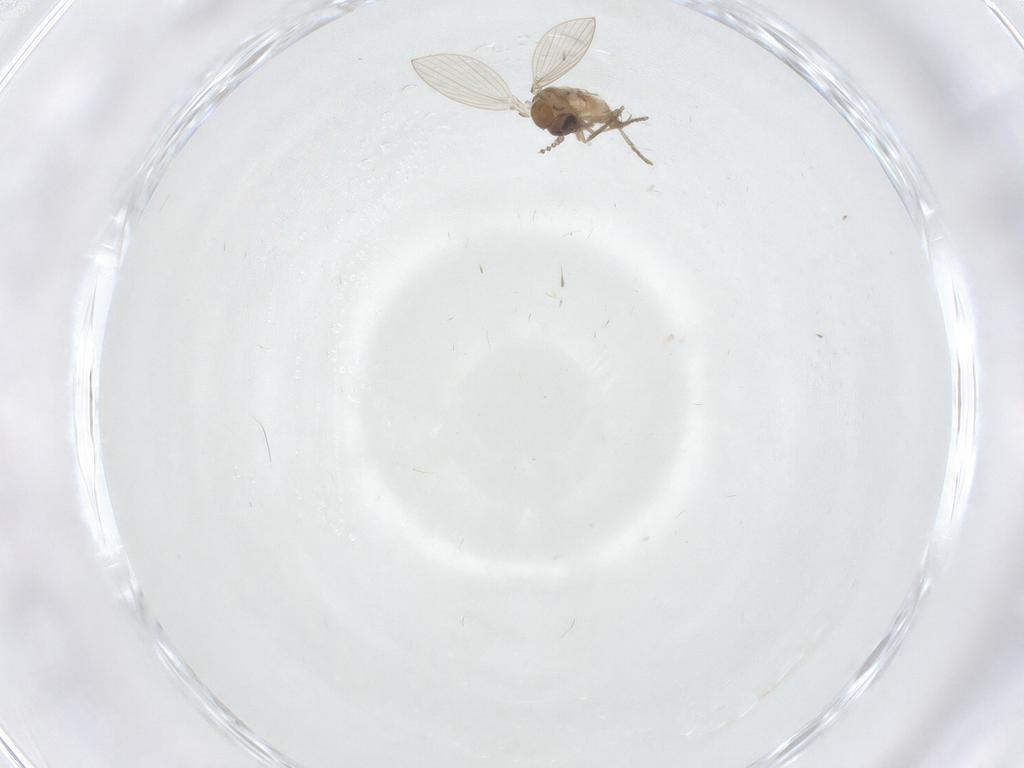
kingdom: Animalia
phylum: Arthropoda
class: Insecta
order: Diptera
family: Psychodidae
